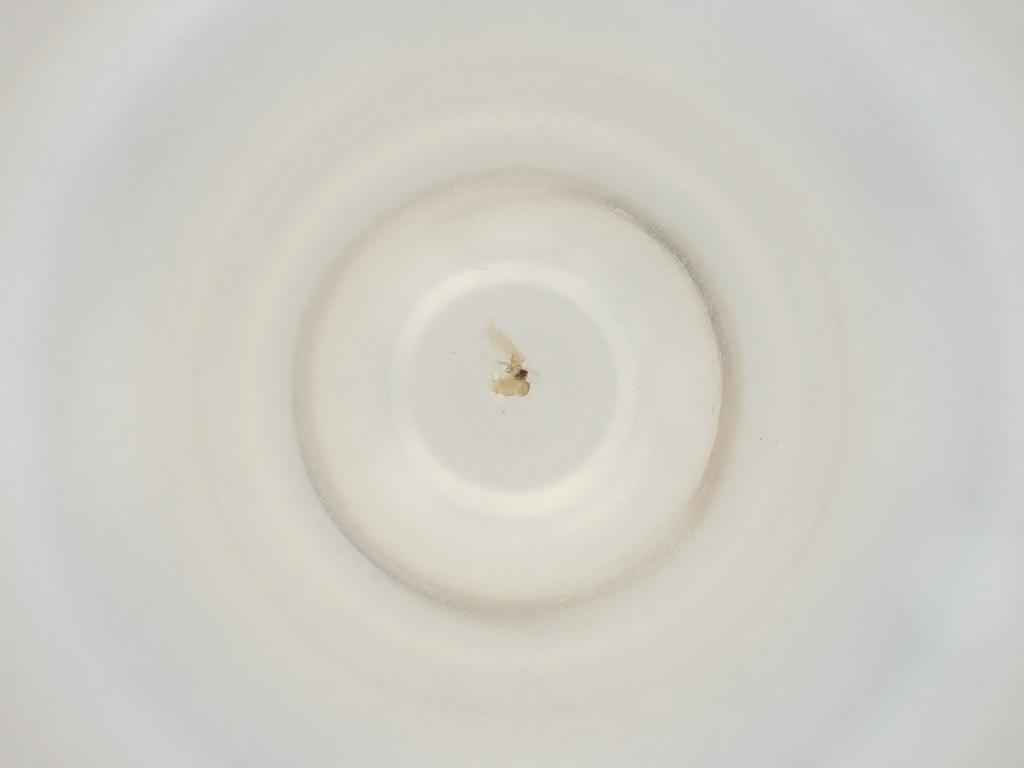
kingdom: Animalia
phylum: Arthropoda
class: Insecta
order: Diptera
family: Cecidomyiidae
